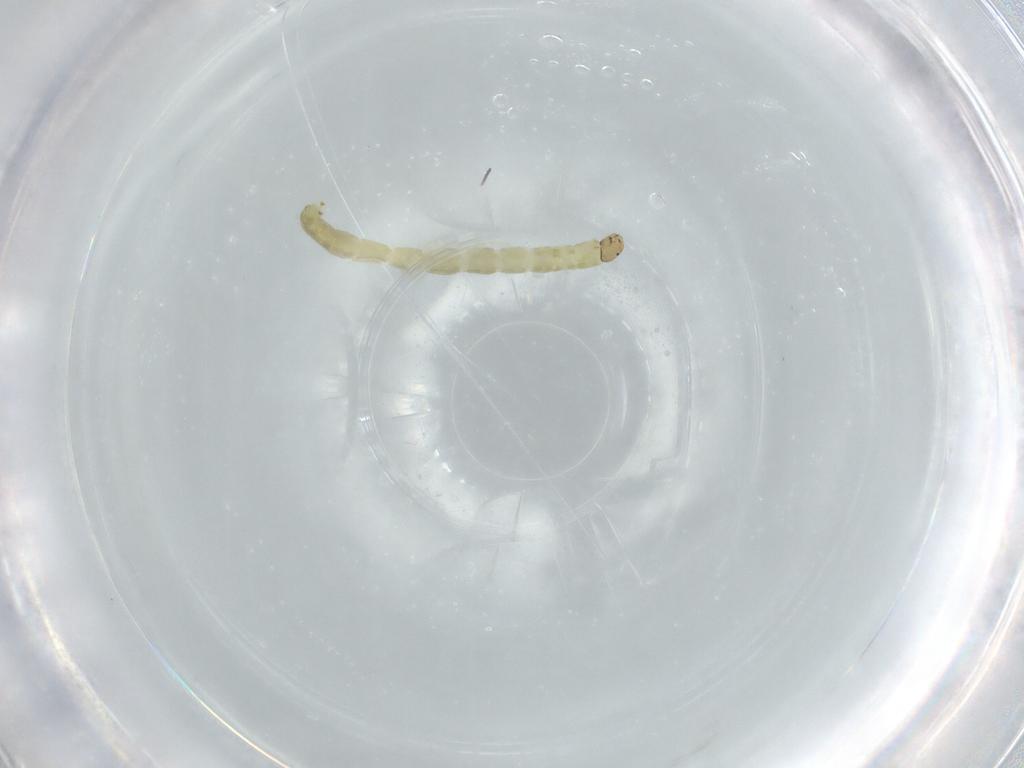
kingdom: Animalia
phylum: Arthropoda
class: Insecta
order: Diptera
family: Chironomidae
